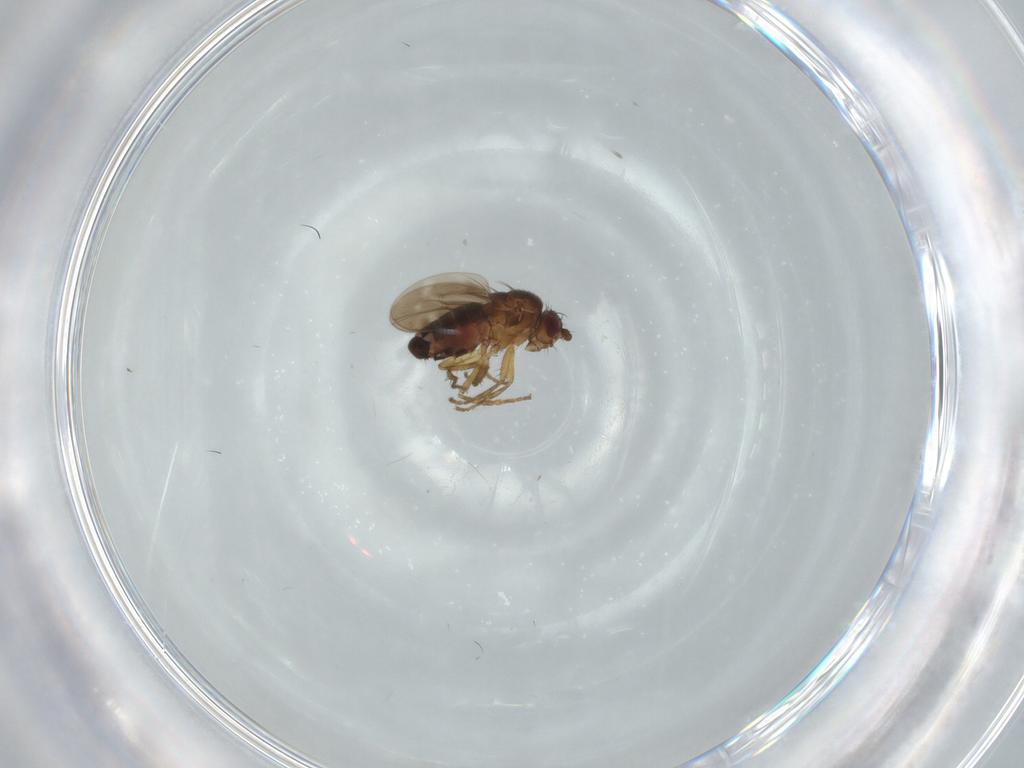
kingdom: Animalia
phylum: Arthropoda
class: Insecta
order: Diptera
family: Sphaeroceridae
